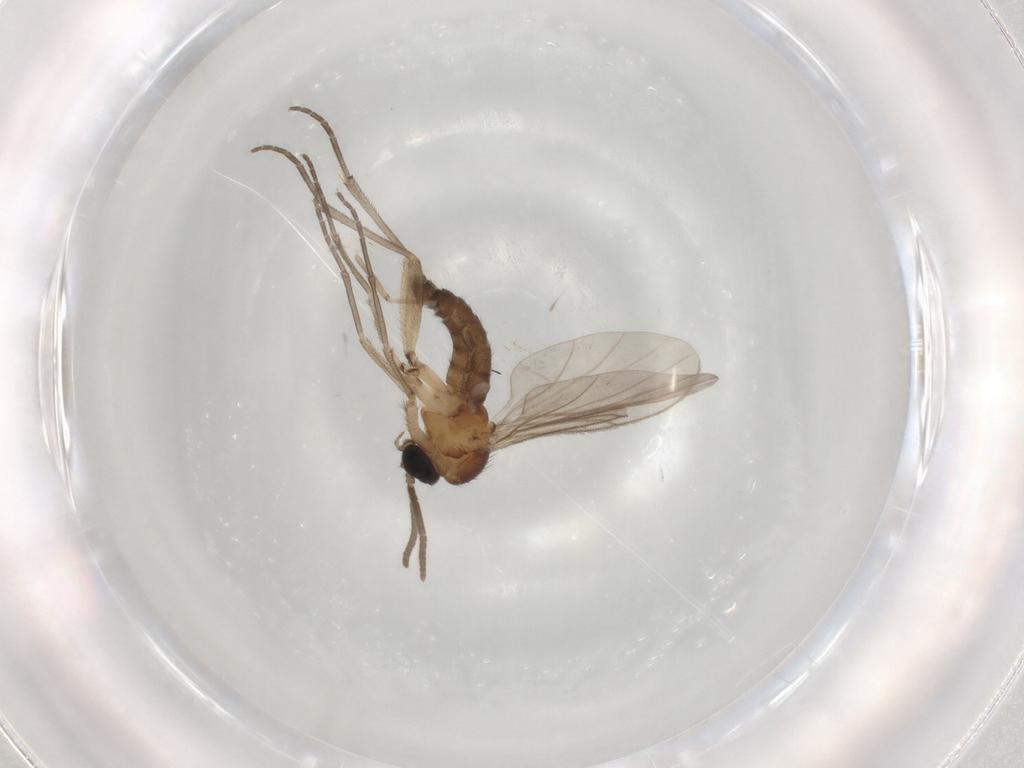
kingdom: Animalia
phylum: Arthropoda
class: Insecta
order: Diptera
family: Chironomidae
